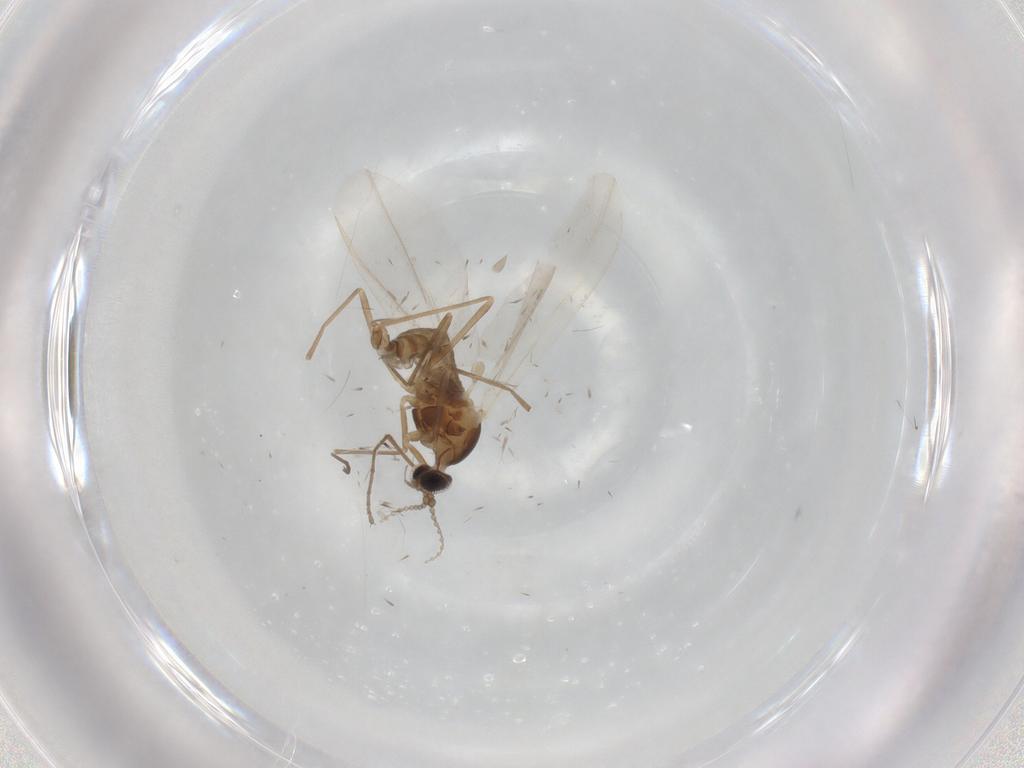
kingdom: Animalia
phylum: Arthropoda
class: Insecta
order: Diptera
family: Cecidomyiidae
